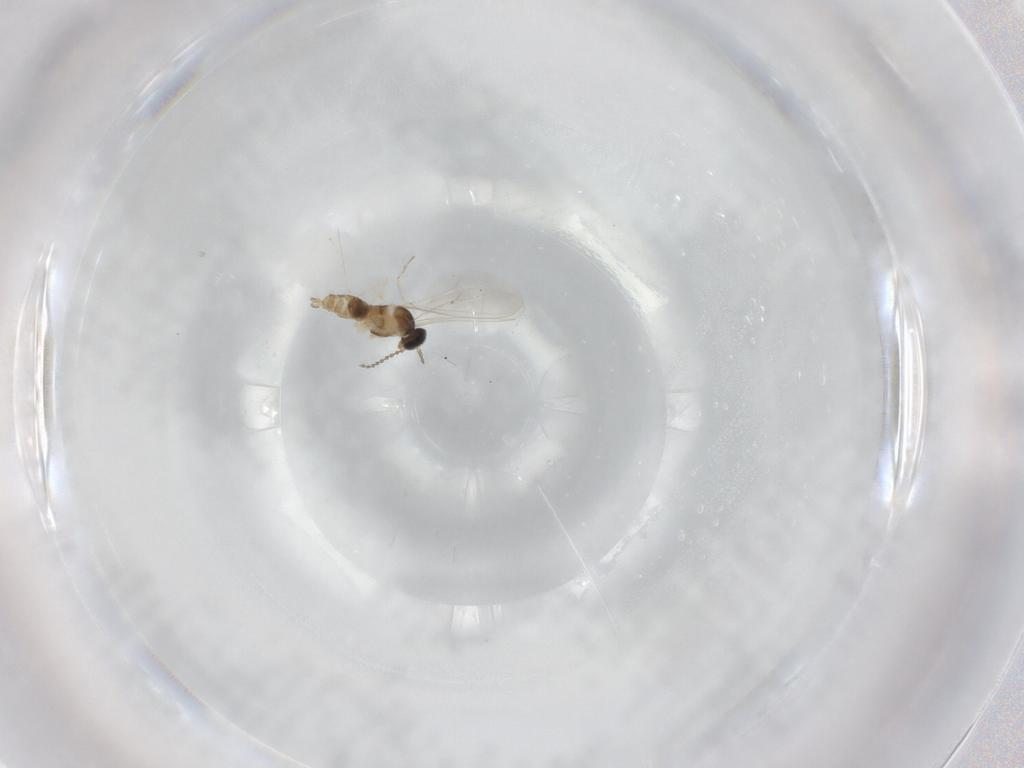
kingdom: Animalia
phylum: Arthropoda
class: Insecta
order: Diptera
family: Cecidomyiidae
